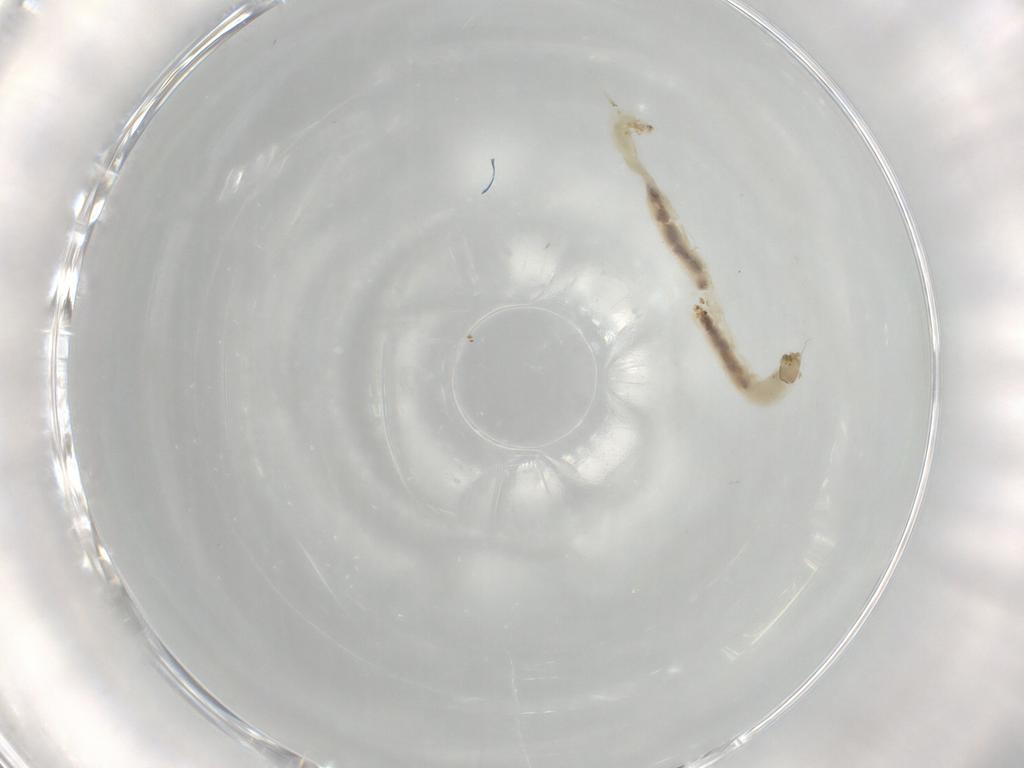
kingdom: Animalia
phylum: Arthropoda
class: Insecta
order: Diptera
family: Chironomidae
